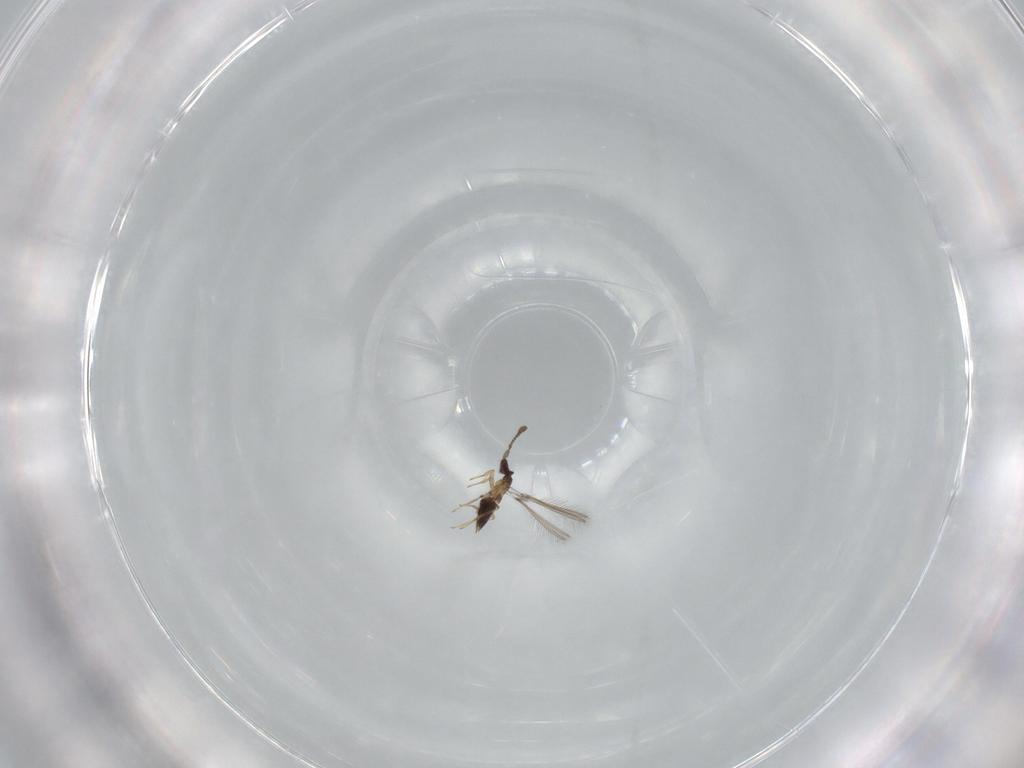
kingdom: Animalia
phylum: Arthropoda
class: Insecta
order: Hymenoptera
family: Mymaridae
